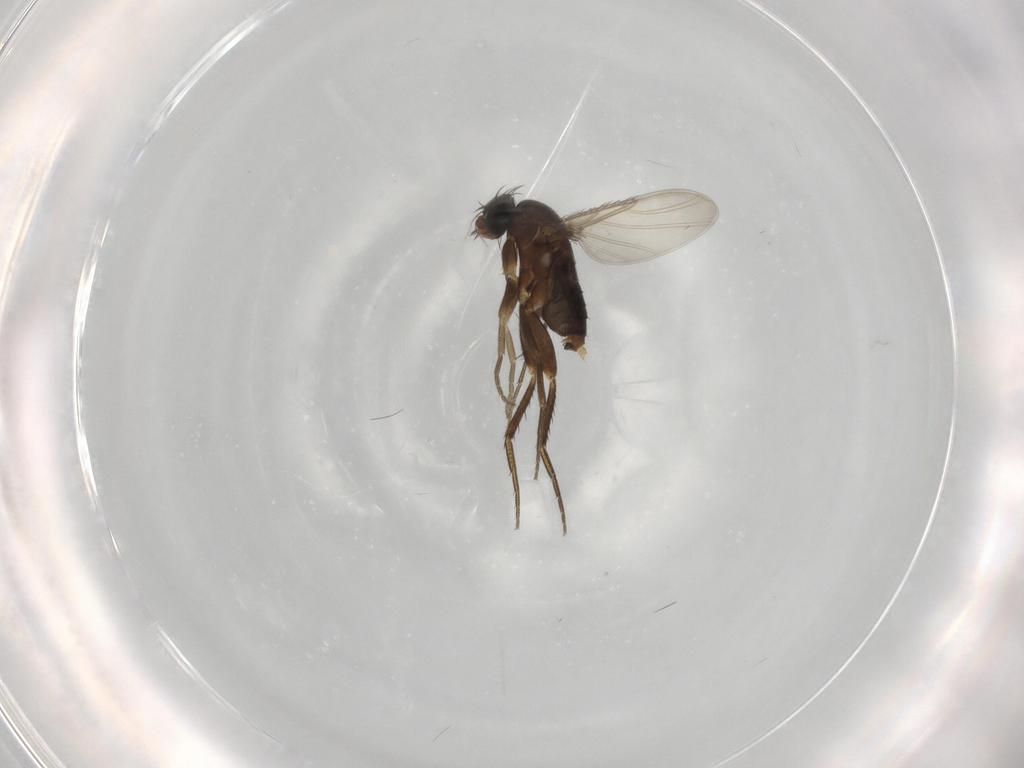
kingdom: Animalia
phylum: Arthropoda
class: Insecta
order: Diptera
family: Phoridae
